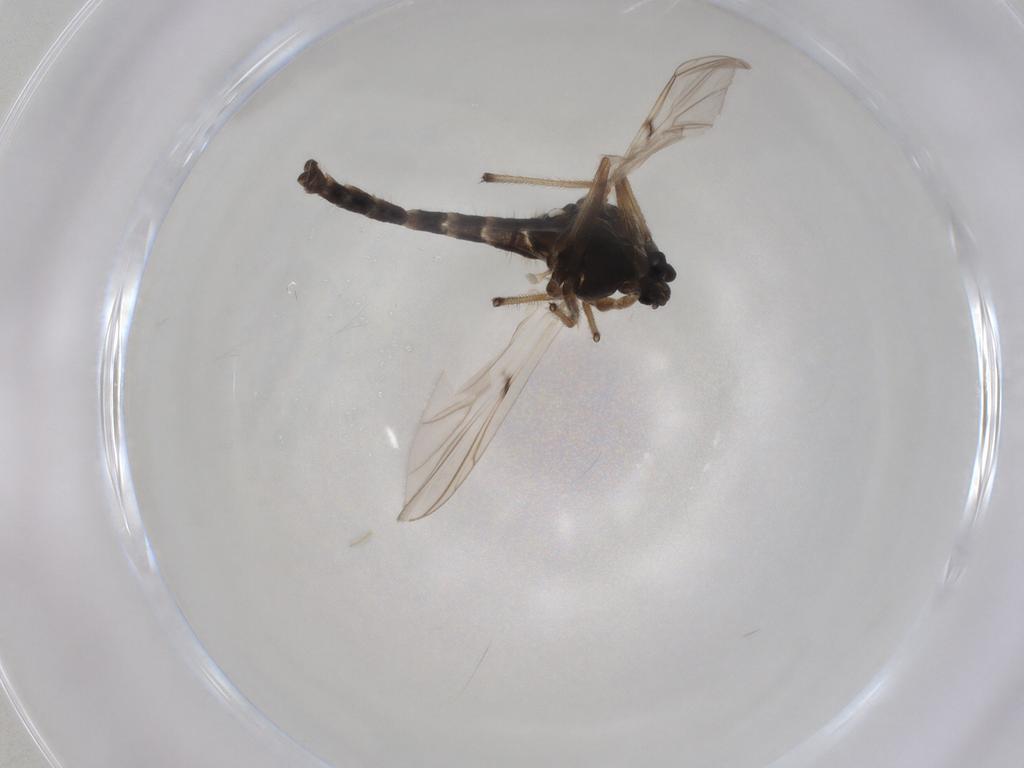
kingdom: Animalia
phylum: Arthropoda
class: Insecta
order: Diptera
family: Chironomidae
